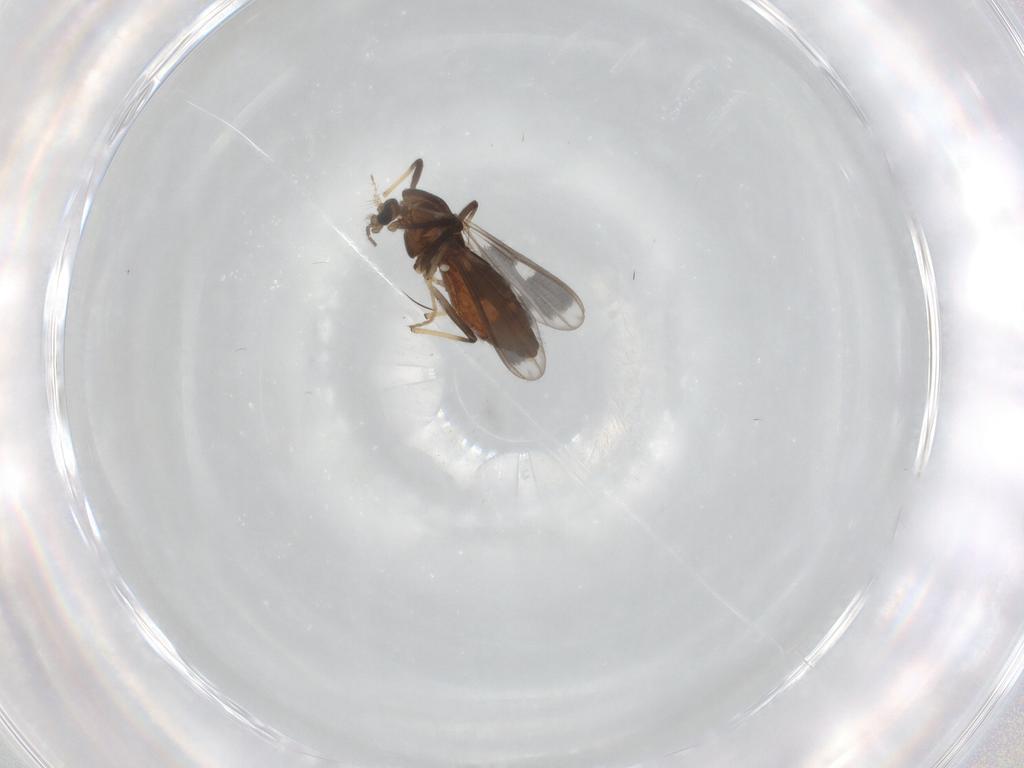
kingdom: Animalia
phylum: Arthropoda
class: Insecta
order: Diptera
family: Chironomidae
